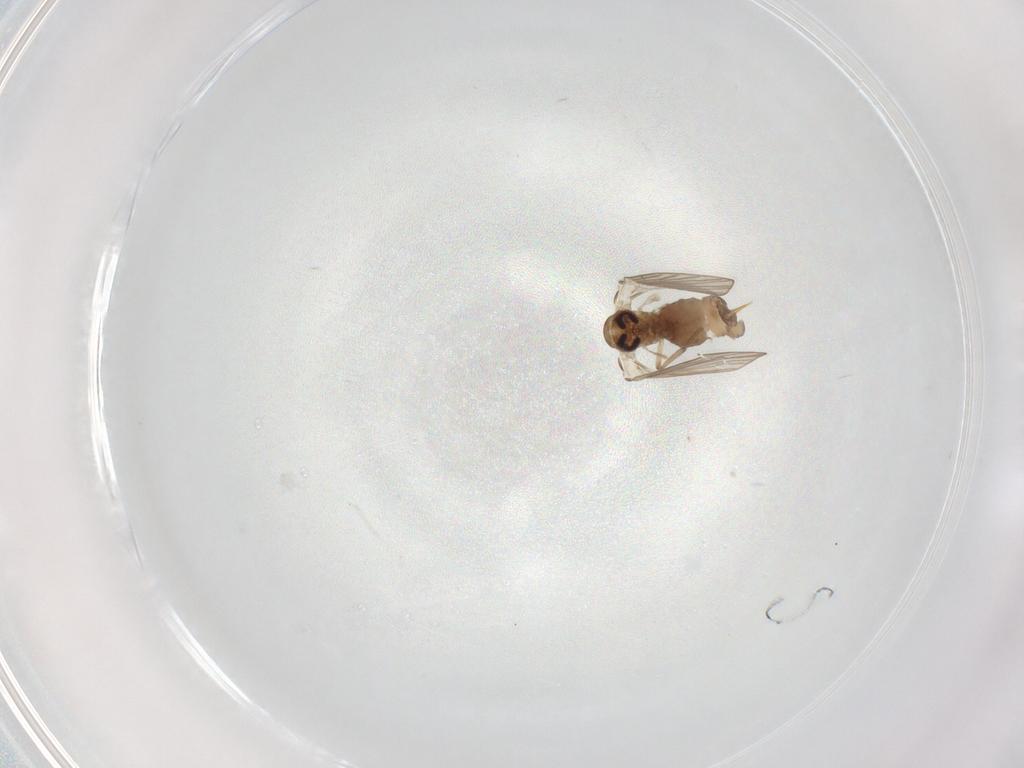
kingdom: Animalia
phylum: Arthropoda
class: Insecta
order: Diptera
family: Psychodidae
